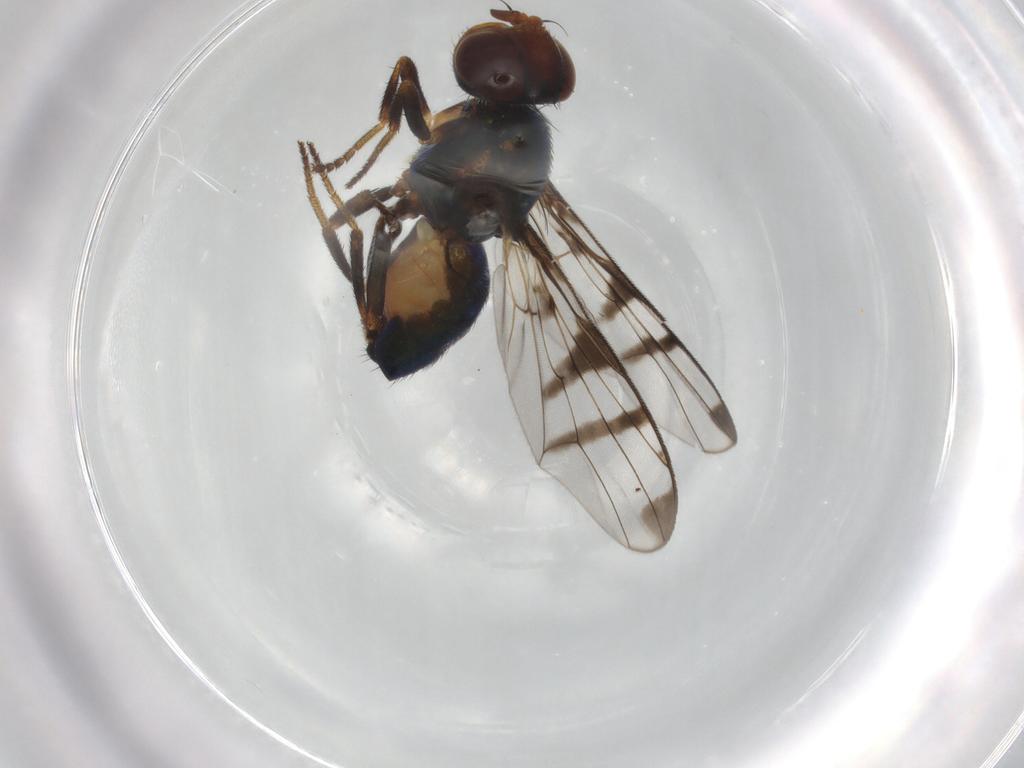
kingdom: Animalia
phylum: Arthropoda
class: Insecta
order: Diptera
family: Platystomatidae
